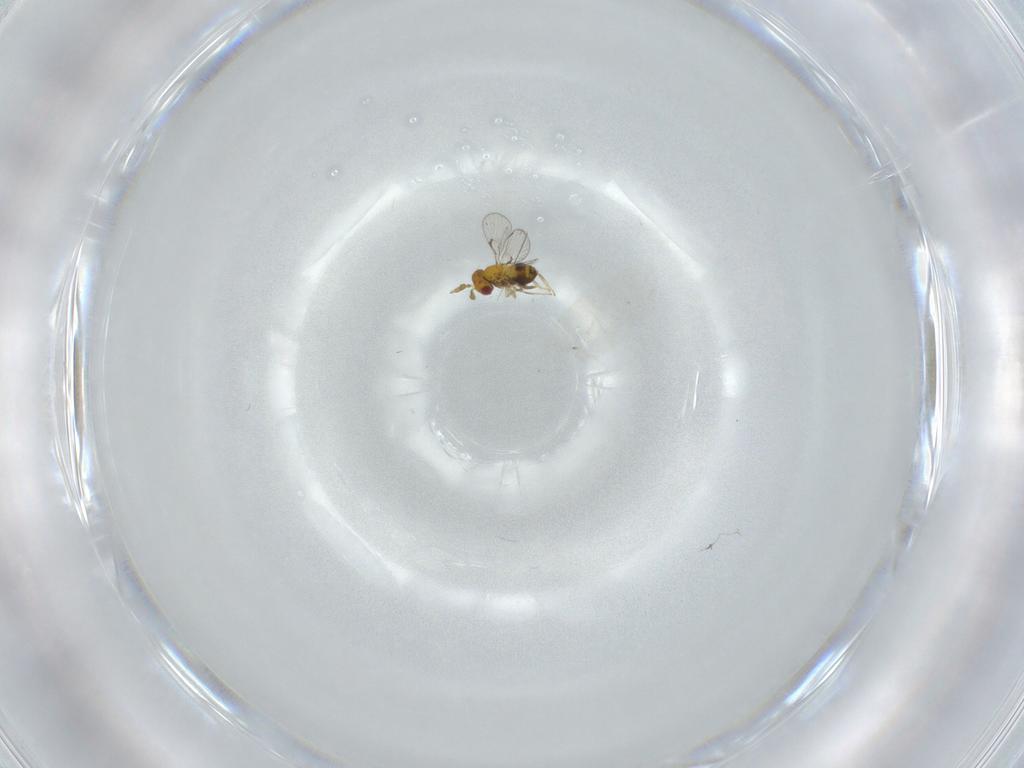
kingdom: Animalia
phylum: Arthropoda
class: Insecta
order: Hymenoptera
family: Trichogrammatidae
